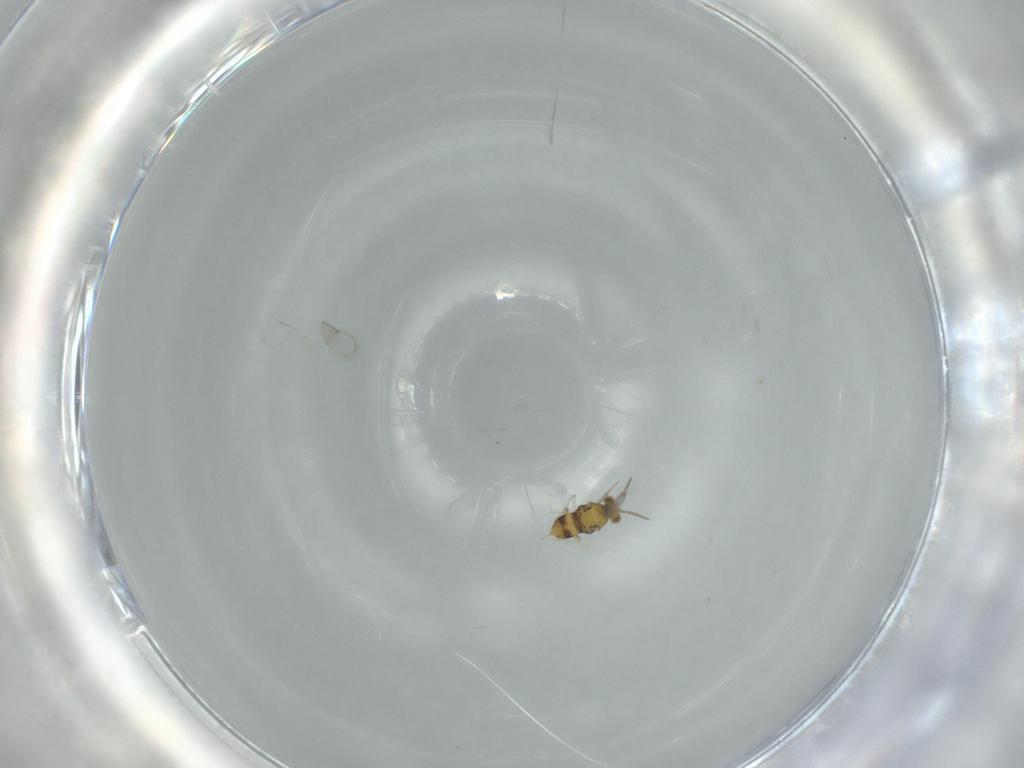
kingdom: Animalia
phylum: Arthropoda
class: Insecta
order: Hymenoptera
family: Aphelinidae
